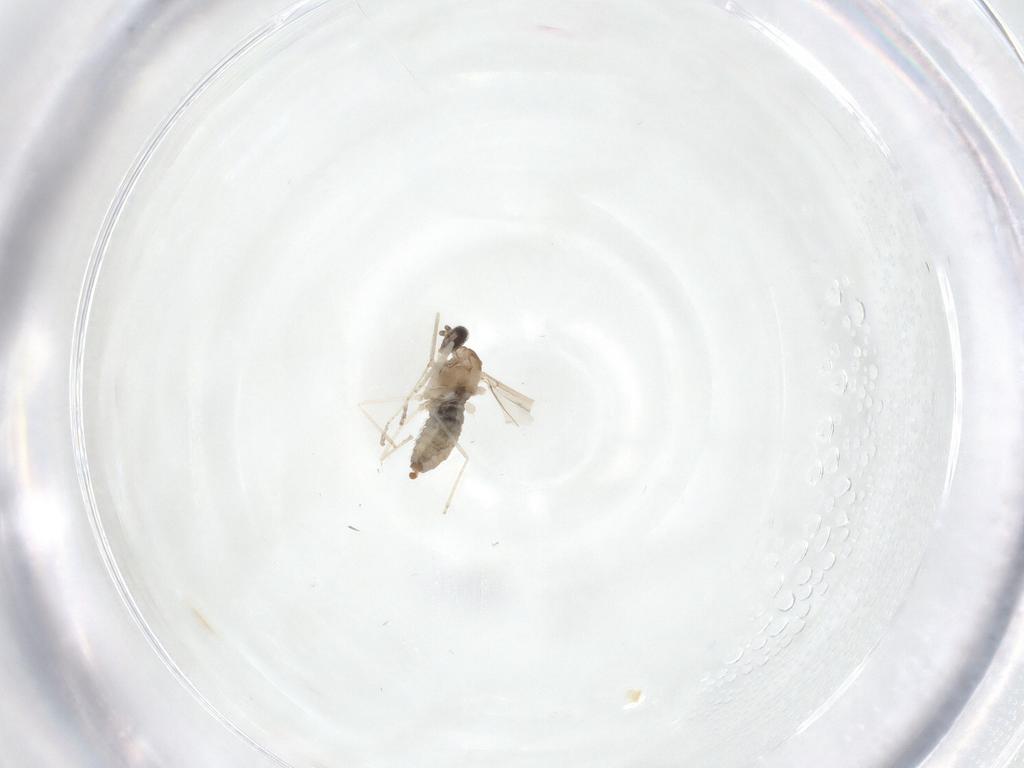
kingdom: Animalia
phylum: Arthropoda
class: Insecta
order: Diptera
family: Cecidomyiidae
